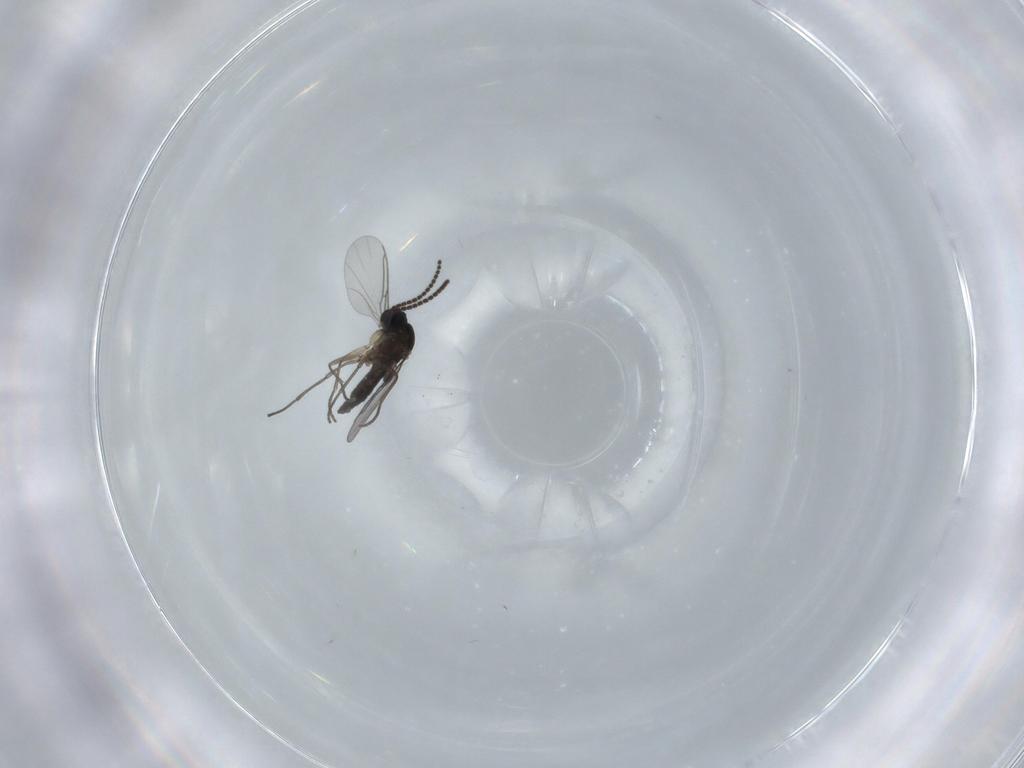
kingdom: Animalia
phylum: Arthropoda
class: Insecta
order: Diptera
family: Sciaridae
